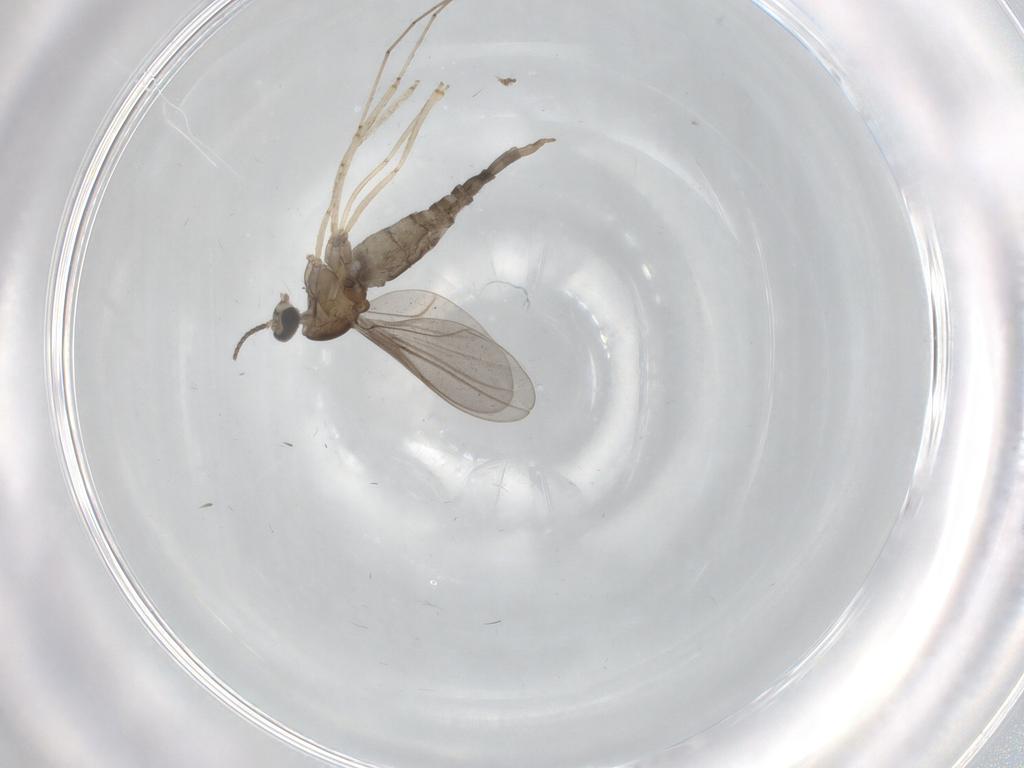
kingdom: Animalia
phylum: Arthropoda
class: Insecta
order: Diptera
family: Cecidomyiidae
